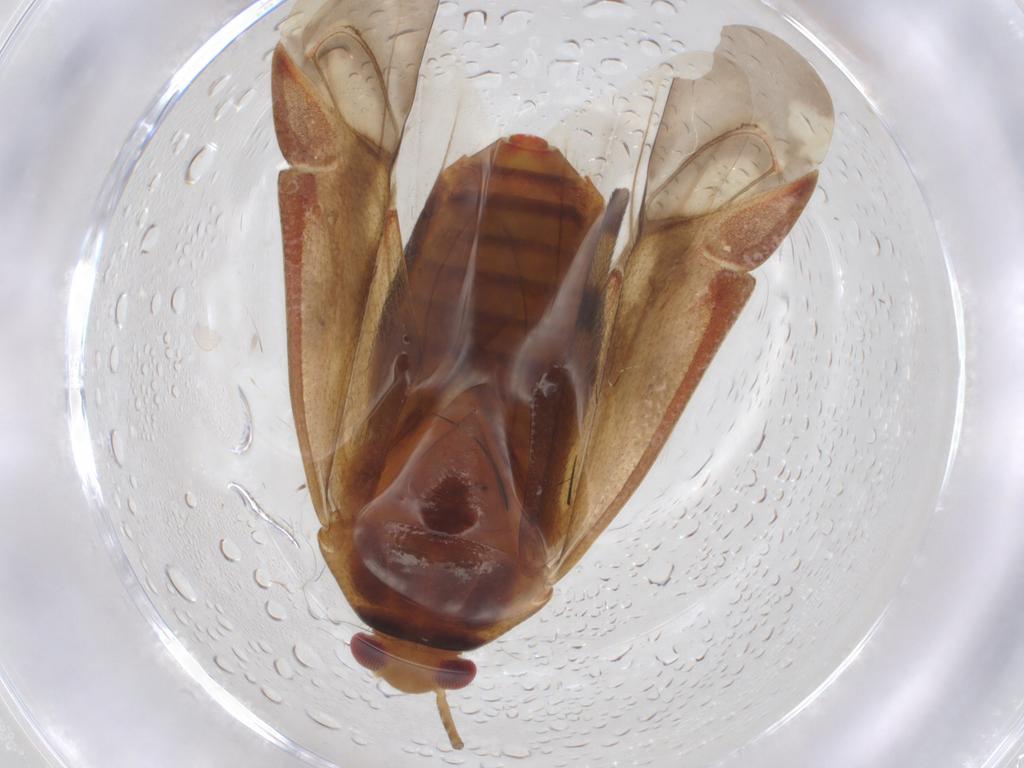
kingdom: Animalia
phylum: Arthropoda
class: Insecta
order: Hemiptera
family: Miridae
